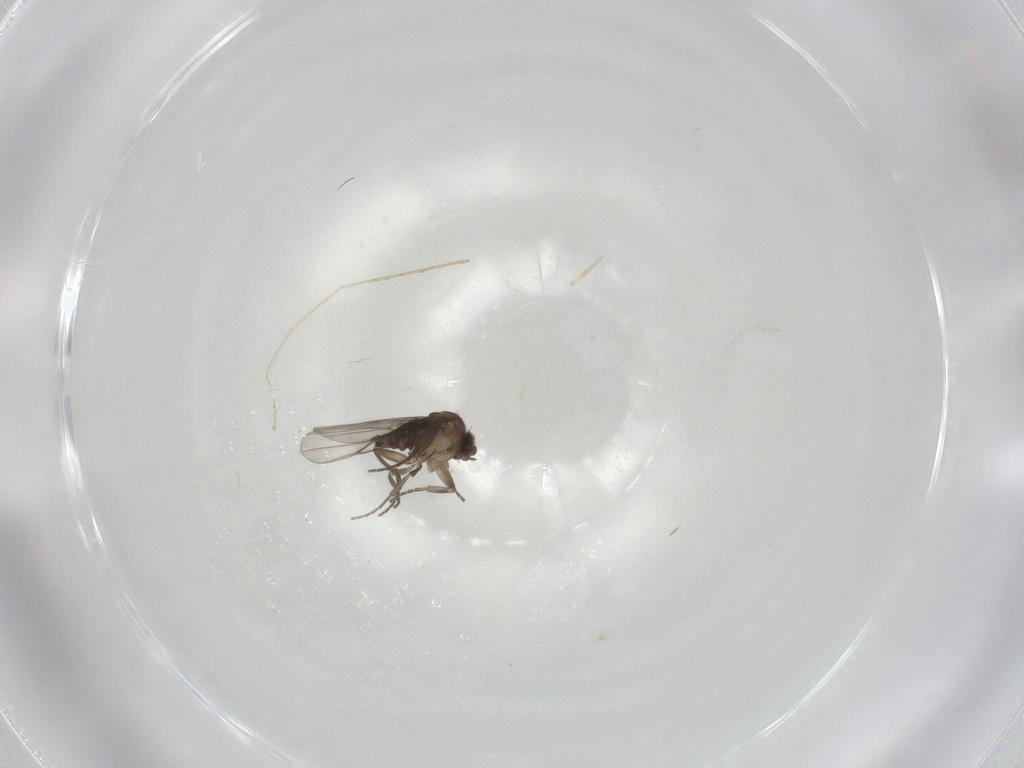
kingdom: Animalia
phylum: Arthropoda
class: Insecta
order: Diptera
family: Chironomidae
